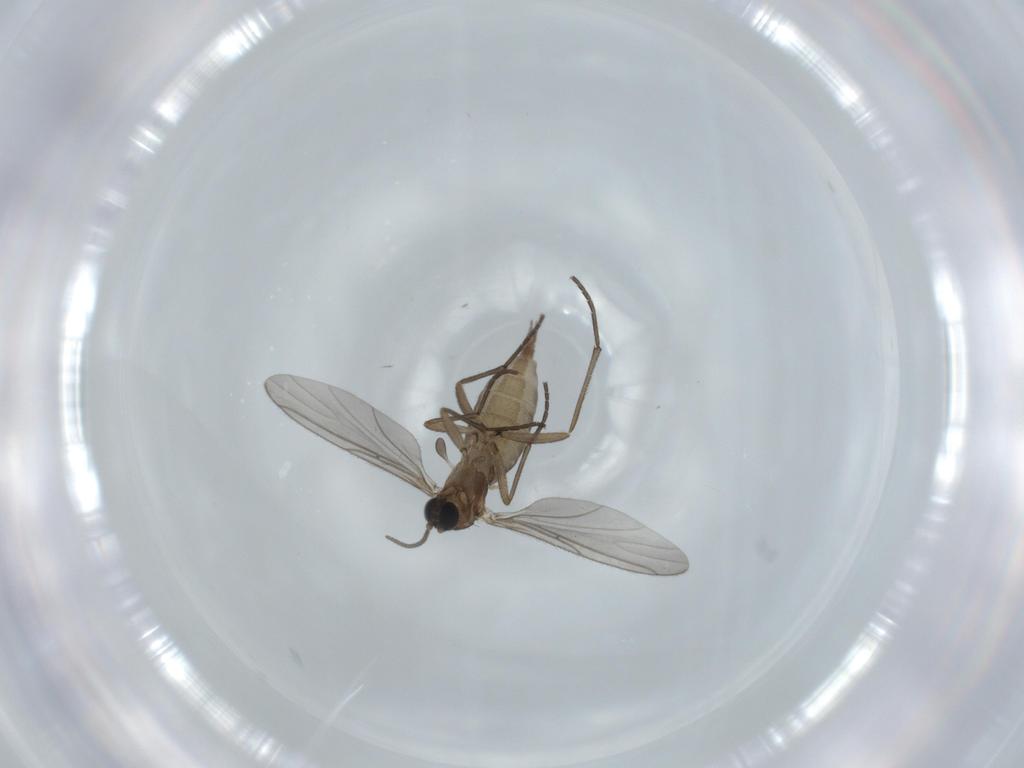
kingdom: Animalia
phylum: Arthropoda
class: Insecta
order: Diptera
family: Sciaridae
